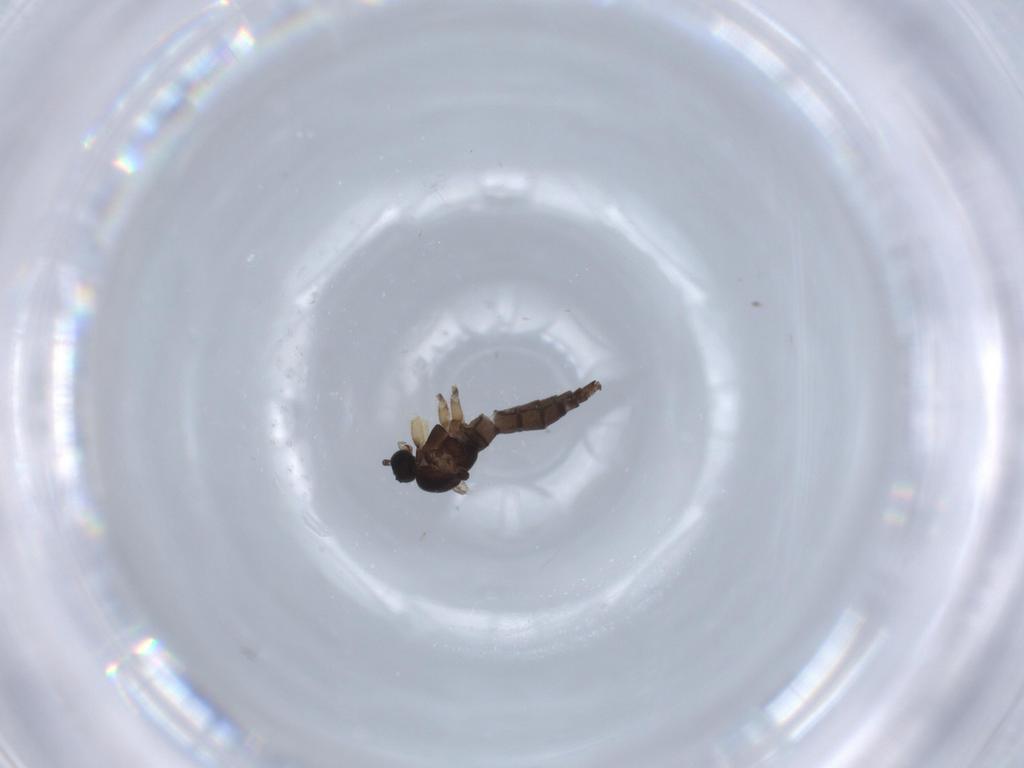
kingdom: Animalia
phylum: Arthropoda
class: Insecta
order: Diptera
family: Sciaridae
